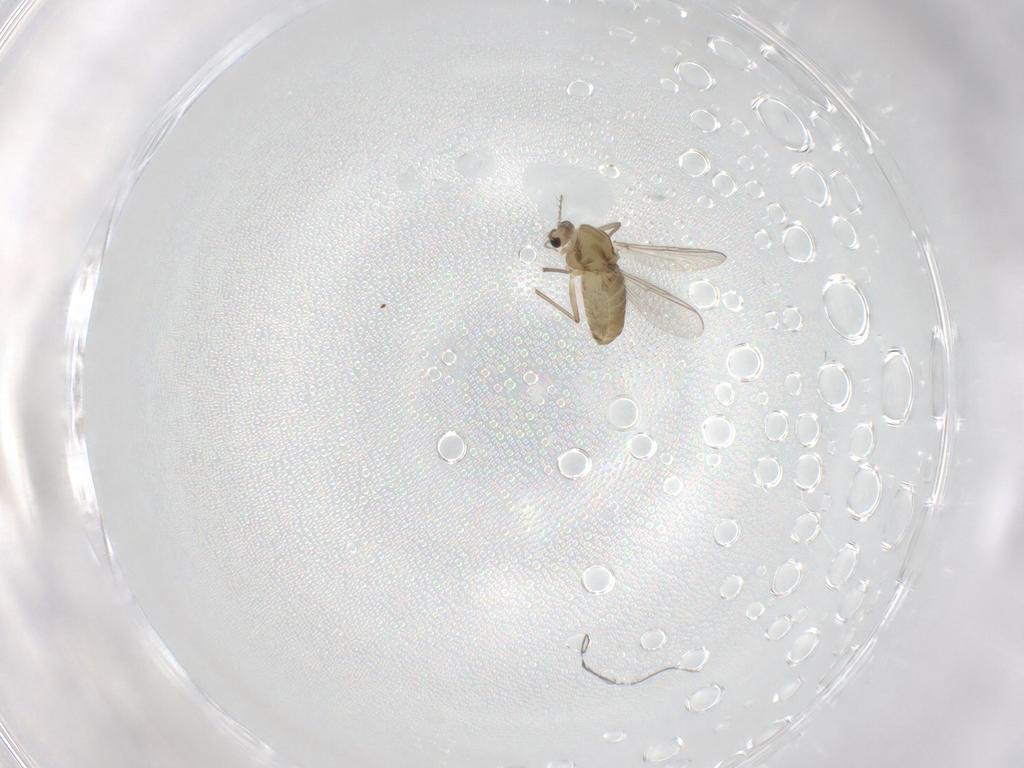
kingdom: Animalia
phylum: Arthropoda
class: Insecta
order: Diptera
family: Chironomidae
